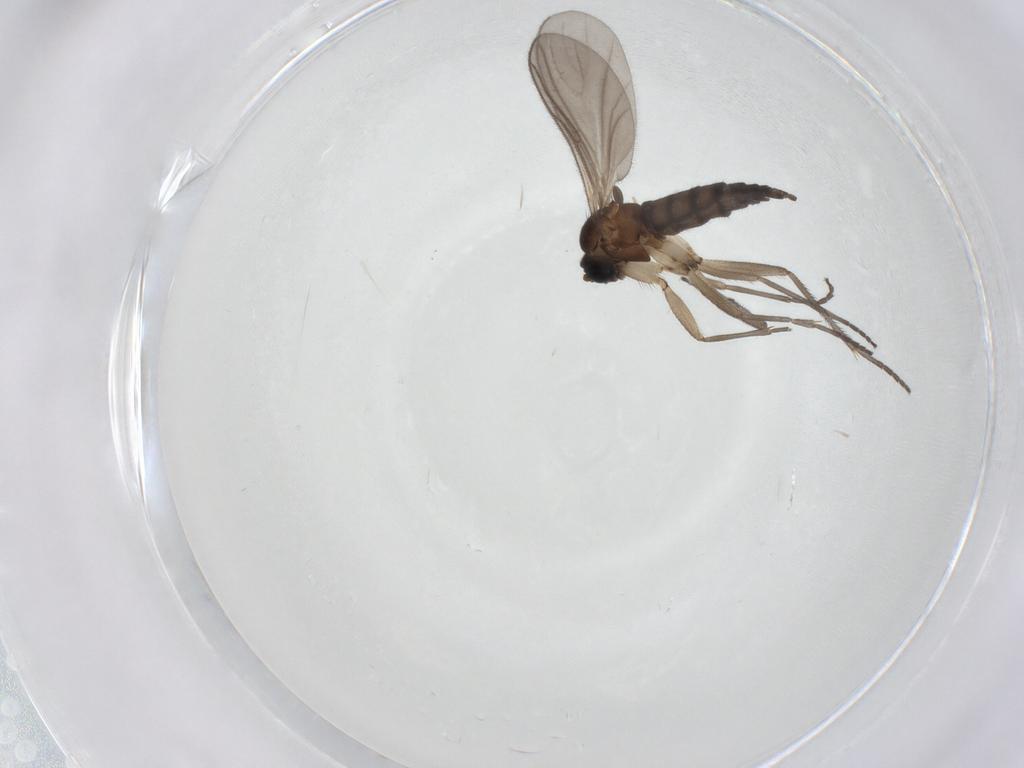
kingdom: Animalia
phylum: Arthropoda
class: Insecta
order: Diptera
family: Sciaridae
